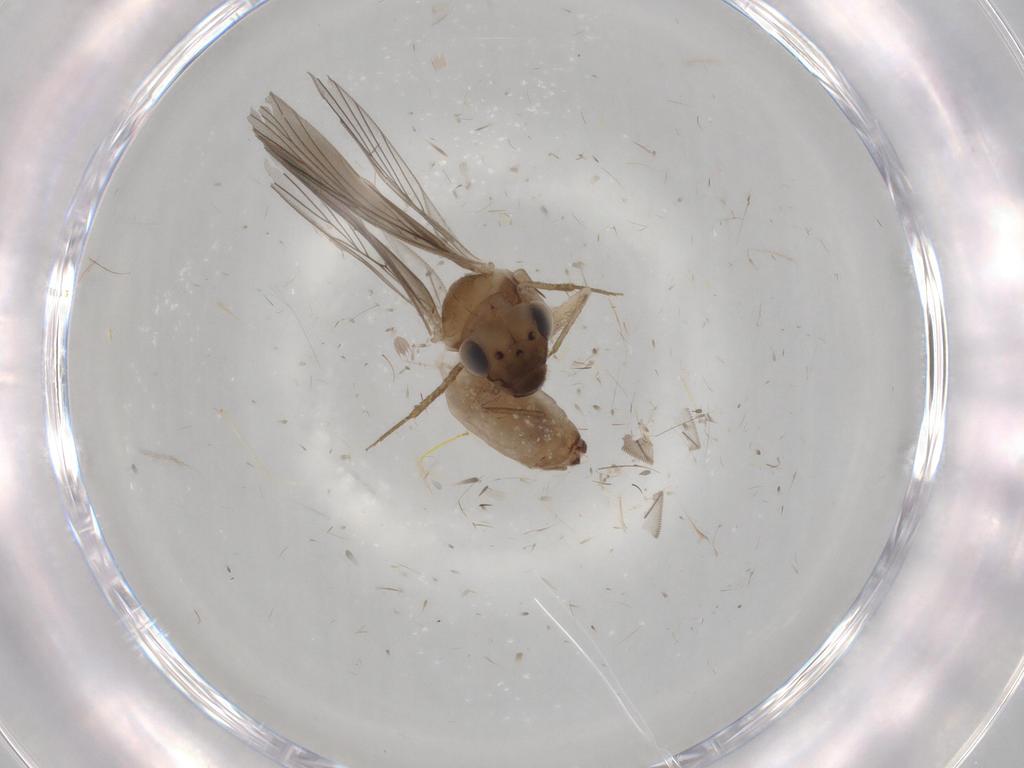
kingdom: Animalia
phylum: Arthropoda
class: Insecta
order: Psocodea
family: Lepidopsocidae
